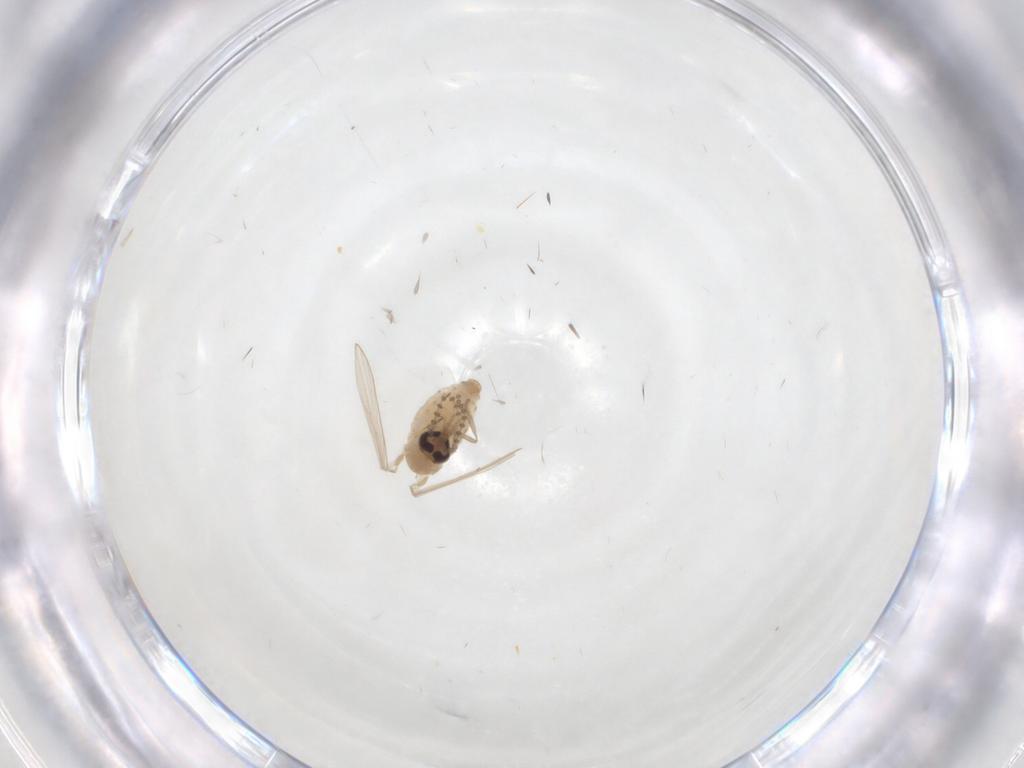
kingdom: Animalia
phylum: Arthropoda
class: Insecta
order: Diptera
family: Psychodidae
